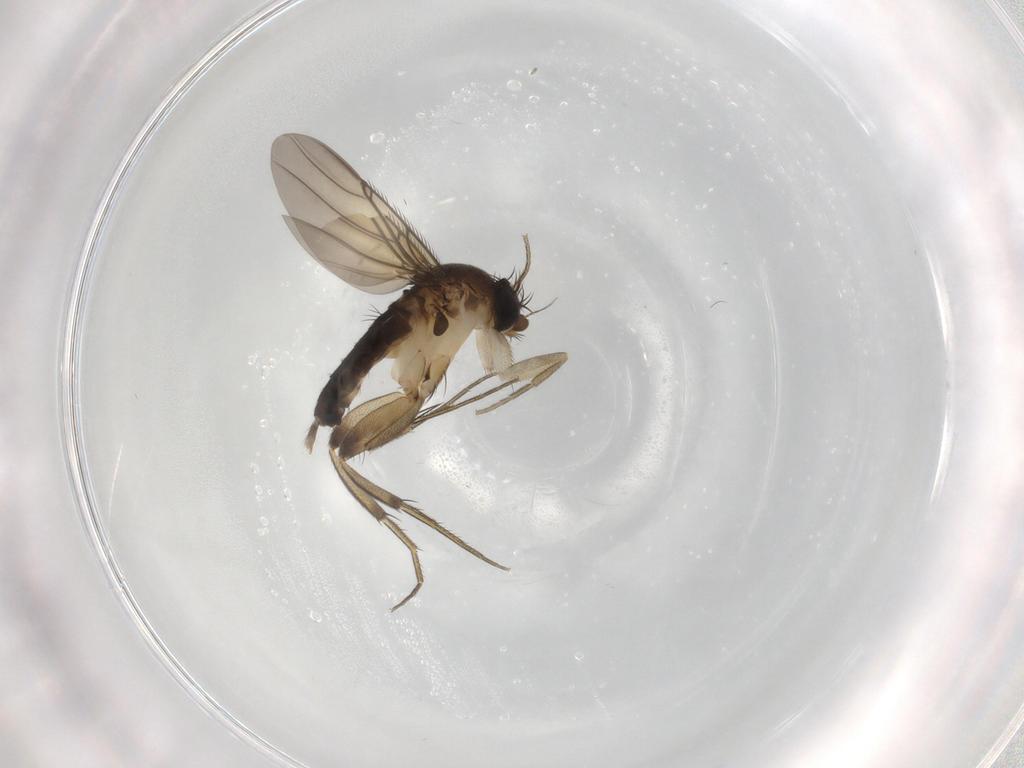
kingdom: Animalia
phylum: Arthropoda
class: Insecta
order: Diptera
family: Phoridae
